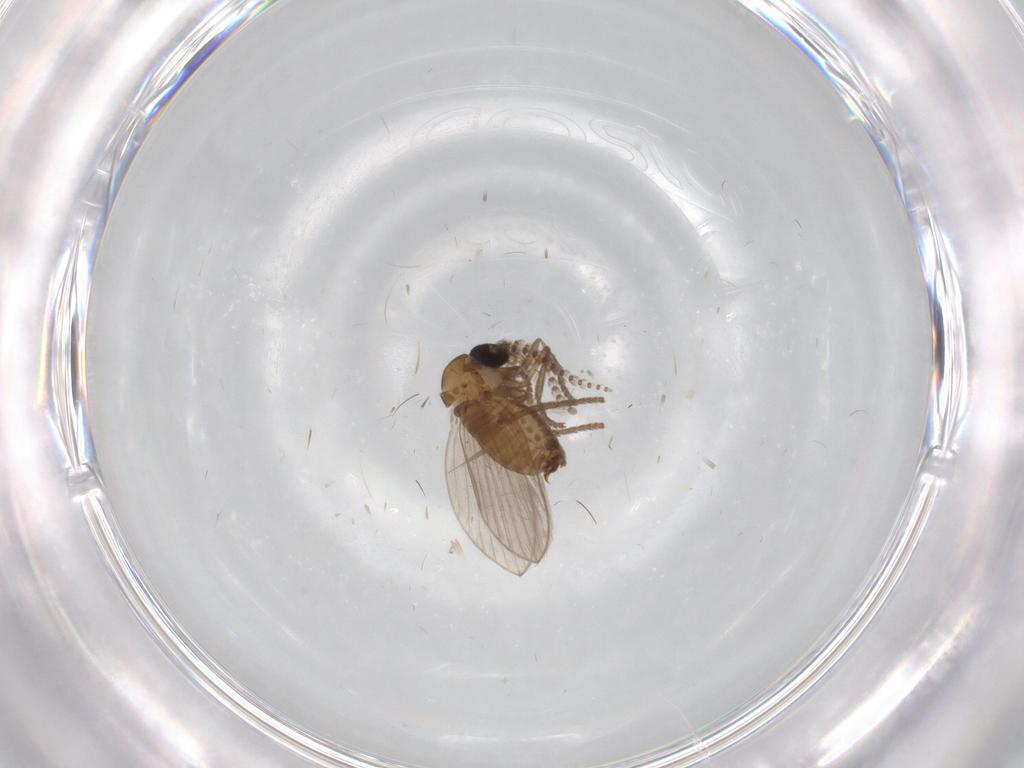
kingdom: Animalia
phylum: Arthropoda
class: Insecta
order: Diptera
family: Psychodidae
